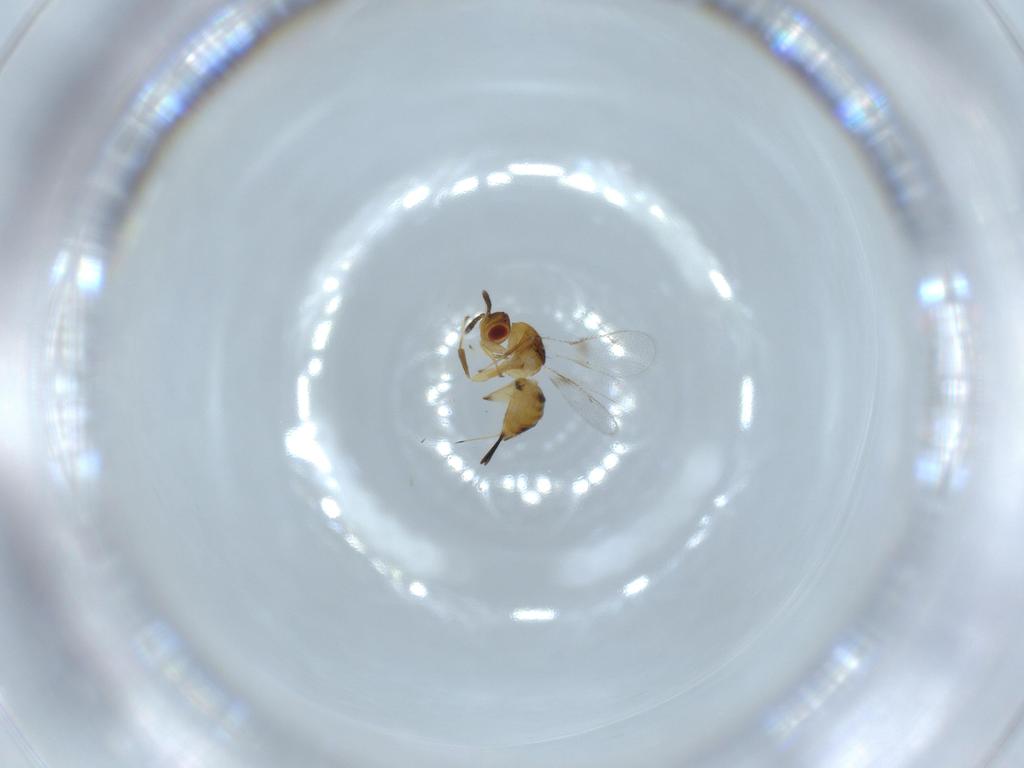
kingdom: Animalia
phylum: Arthropoda
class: Insecta
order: Hymenoptera
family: Torymidae
